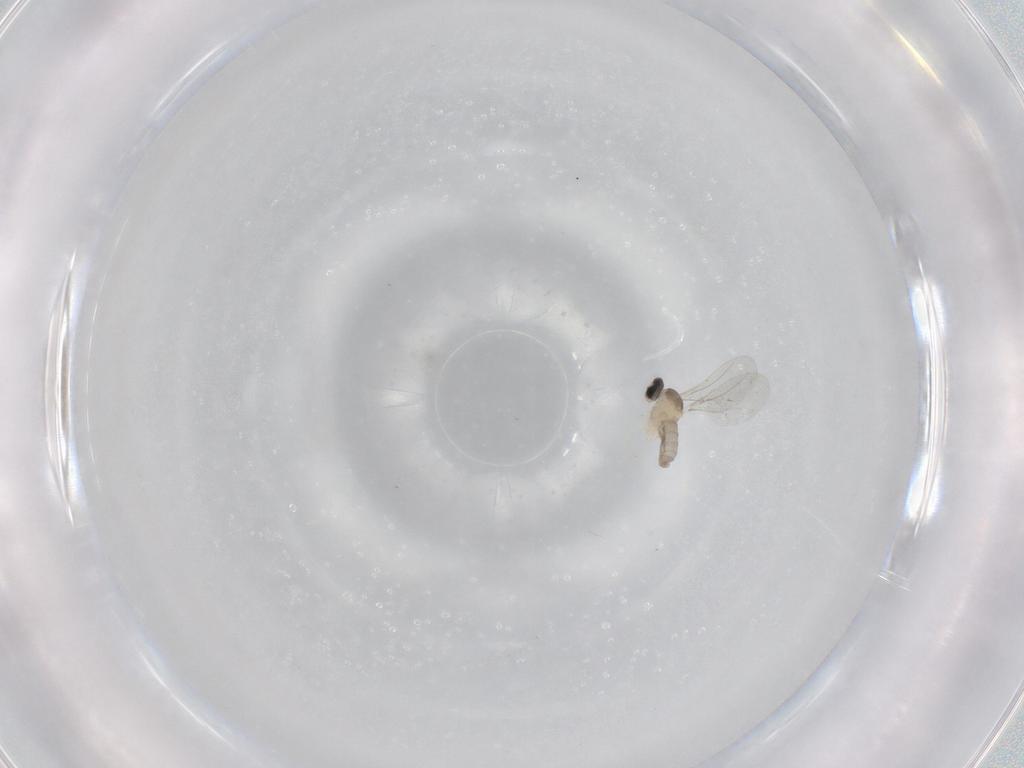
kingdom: Animalia
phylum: Arthropoda
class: Insecta
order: Diptera
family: Cecidomyiidae
